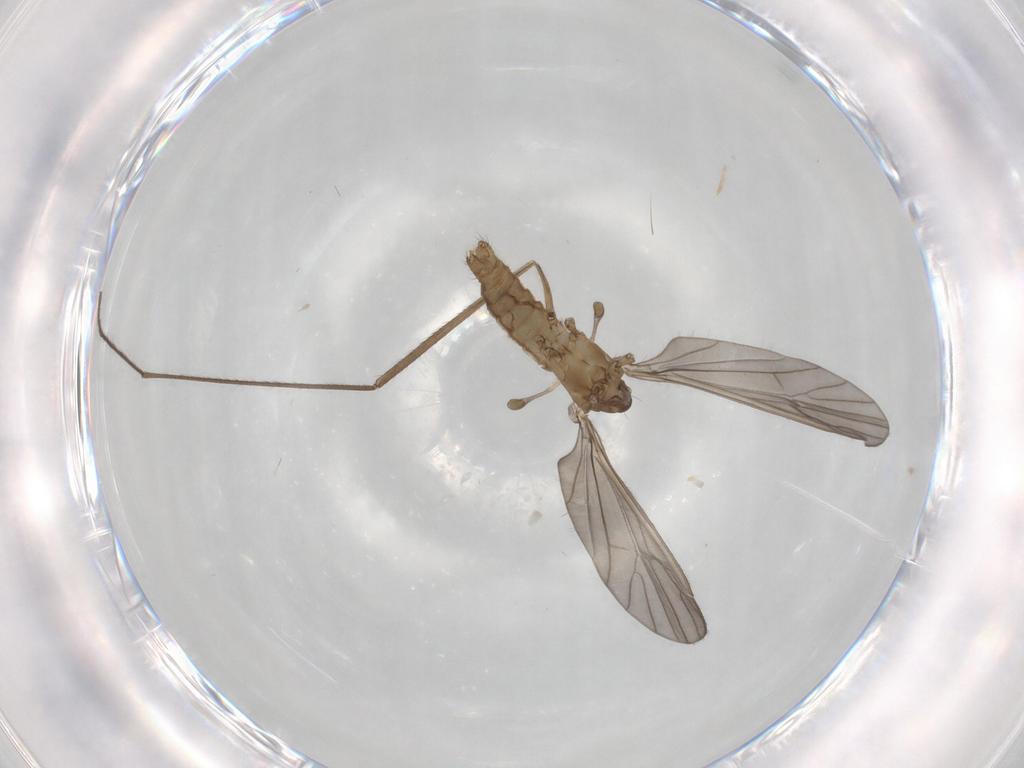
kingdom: Animalia
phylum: Arthropoda
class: Insecta
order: Diptera
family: Limoniidae
